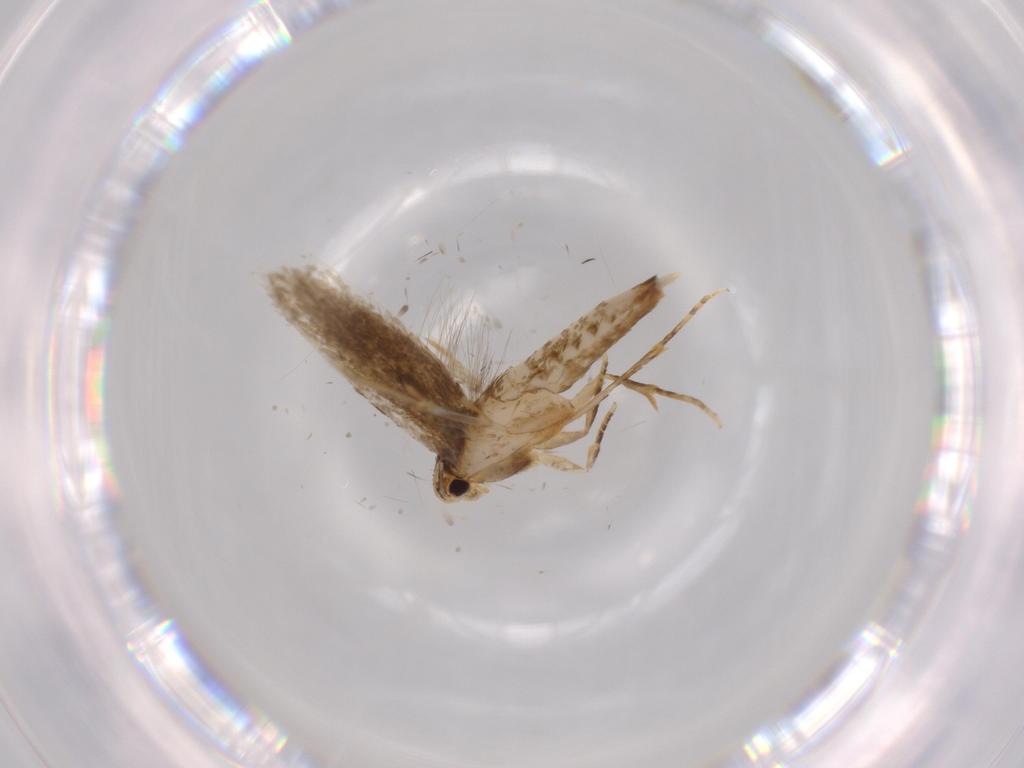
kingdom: Animalia
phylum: Arthropoda
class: Insecta
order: Lepidoptera
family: Tineidae
